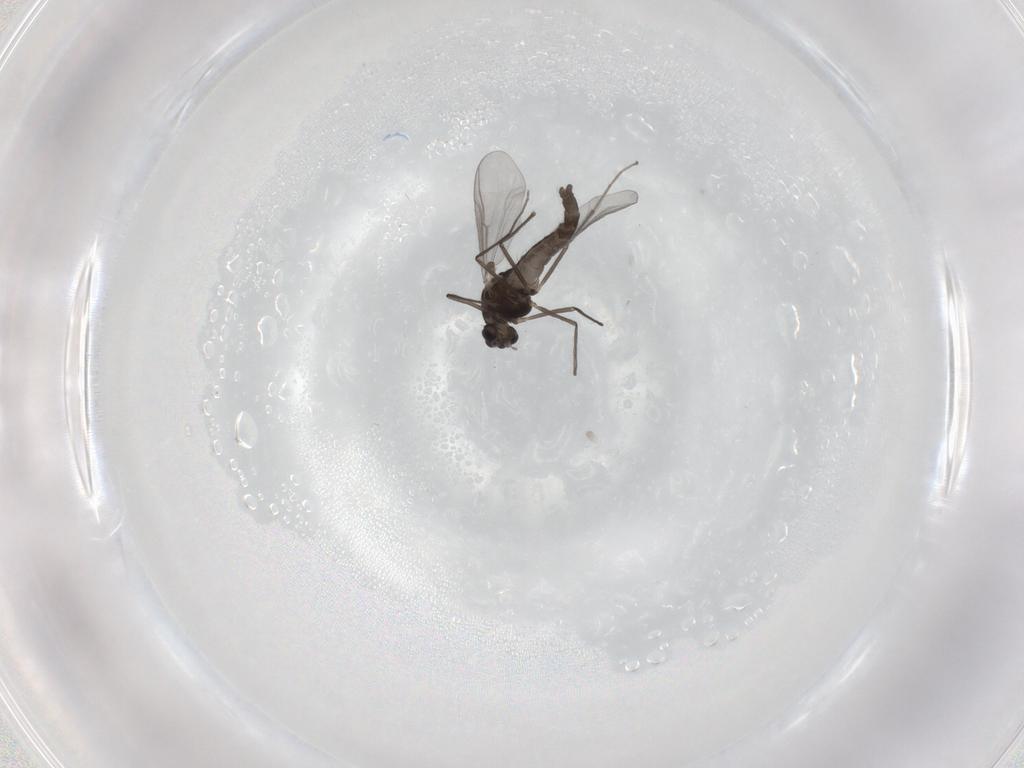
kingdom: Animalia
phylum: Arthropoda
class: Insecta
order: Diptera
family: Chironomidae
